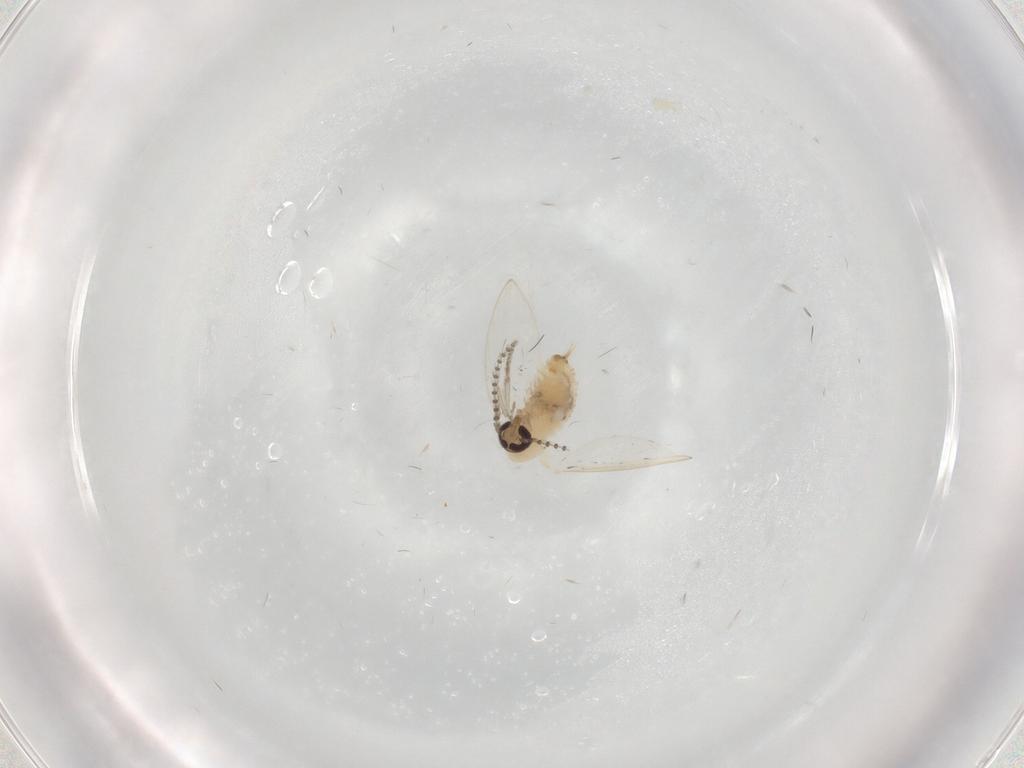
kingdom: Animalia
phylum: Arthropoda
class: Insecta
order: Diptera
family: Psychodidae
